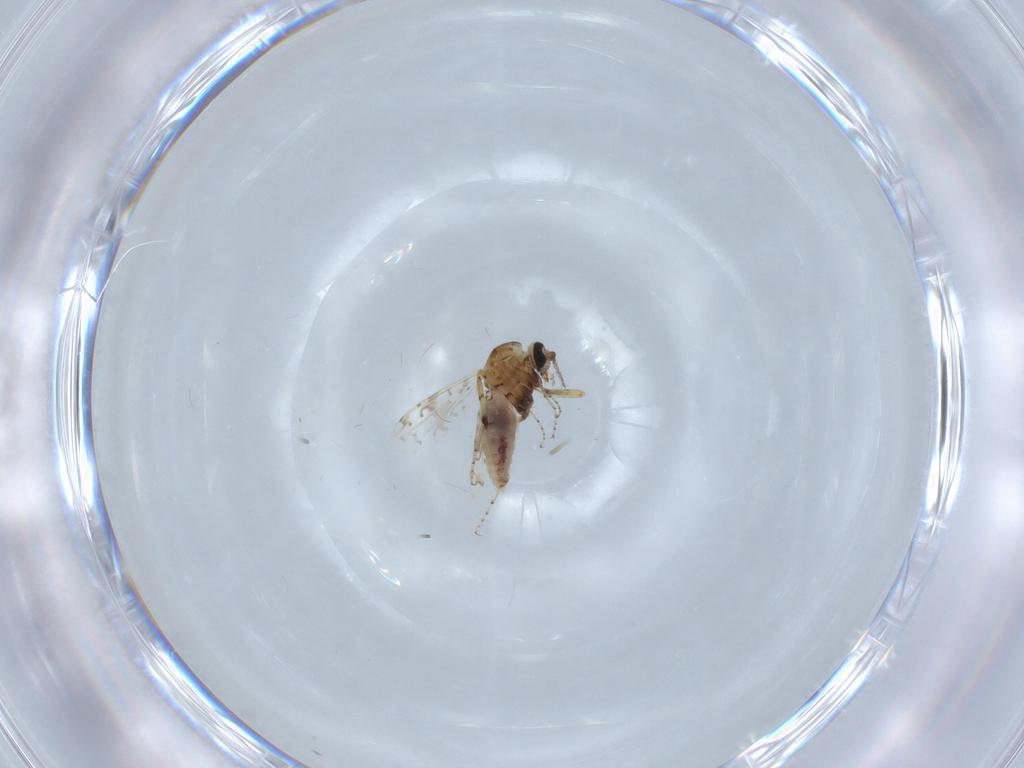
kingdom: Animalia
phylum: Arthropoda
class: Insecta
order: Diptera
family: Ceratopogonidae
